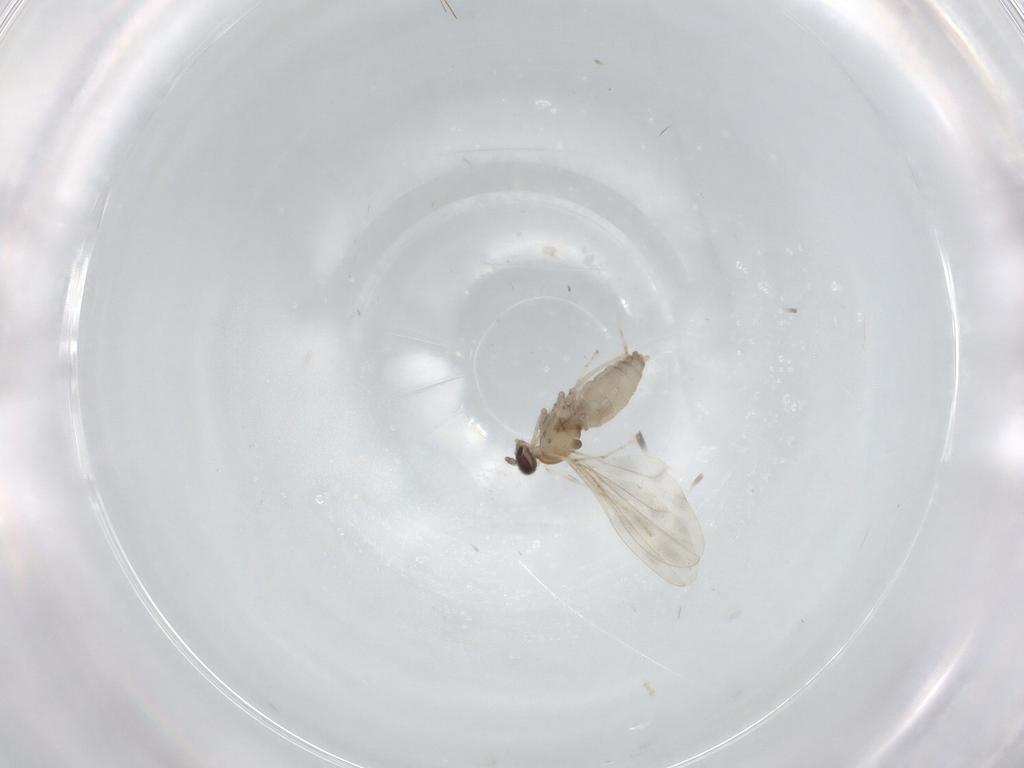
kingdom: Animalia
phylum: Arthropoda
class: Insecta
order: Diptera
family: Cecidomyiidae
